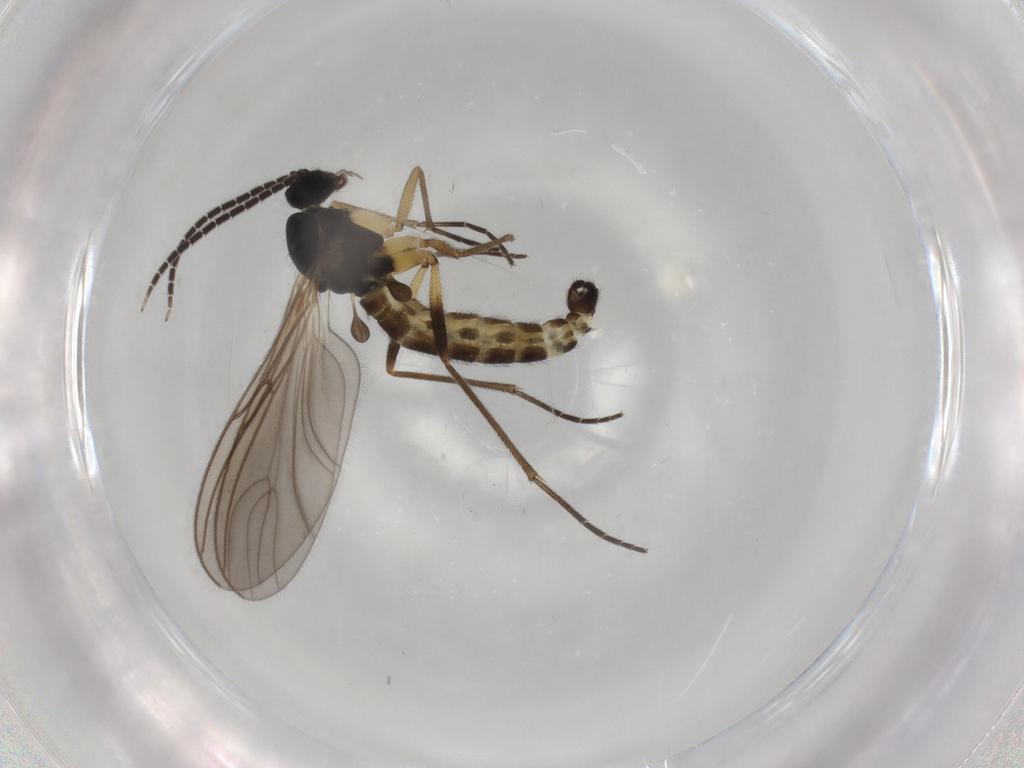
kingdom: Animalia
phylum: Arthropoda
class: Insecta
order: Diptera
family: Sciaridae
